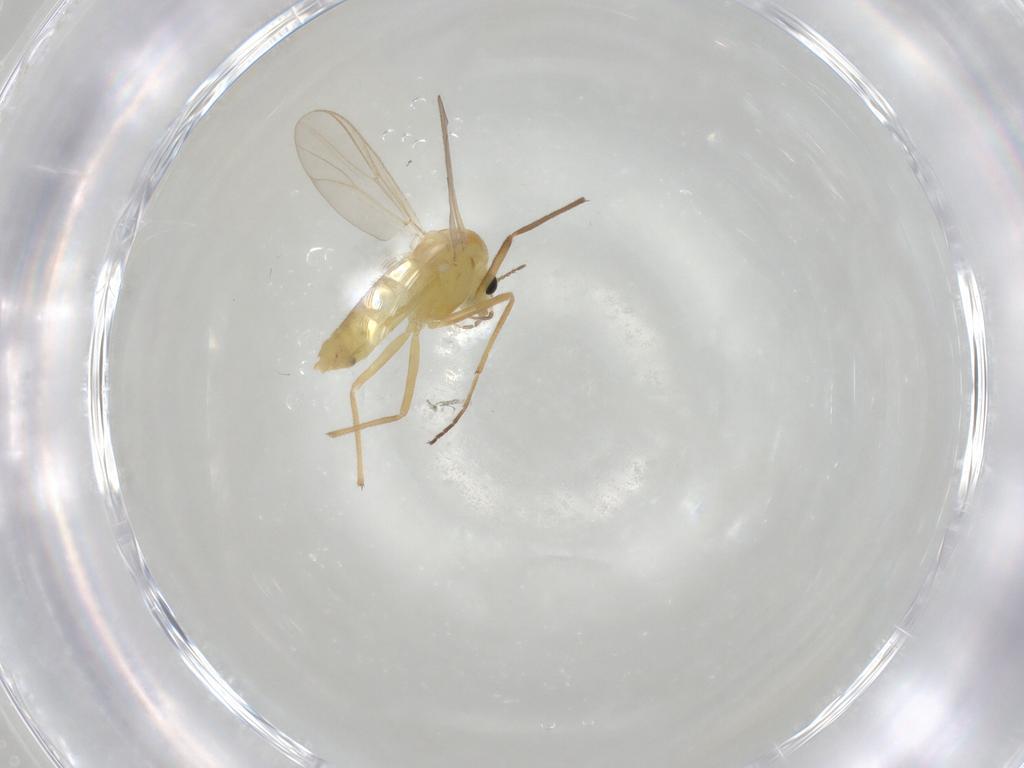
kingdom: Animalia
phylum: Arthropoda
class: Insecta
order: Diptera
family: Chironomidae
